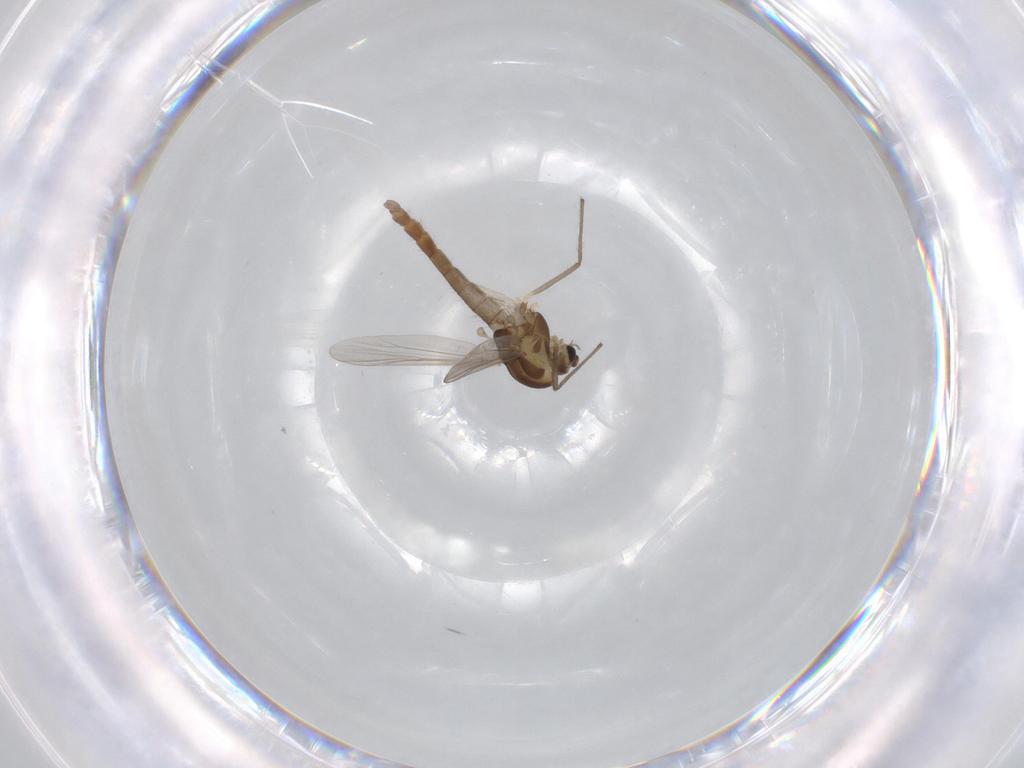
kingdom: Animalia
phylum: Arthropoda
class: Insecta
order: Diptera
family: Chironomidae
